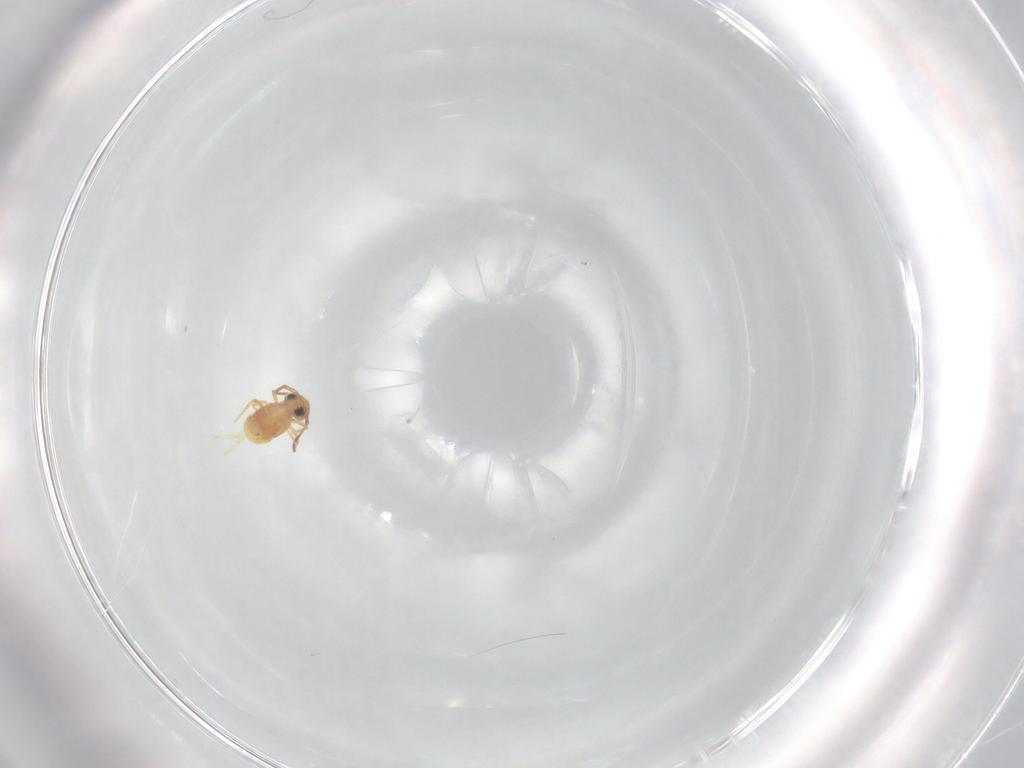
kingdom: Animalia
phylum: Arthropoda
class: Collembola
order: Symphypleona
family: Bourletiellidae
